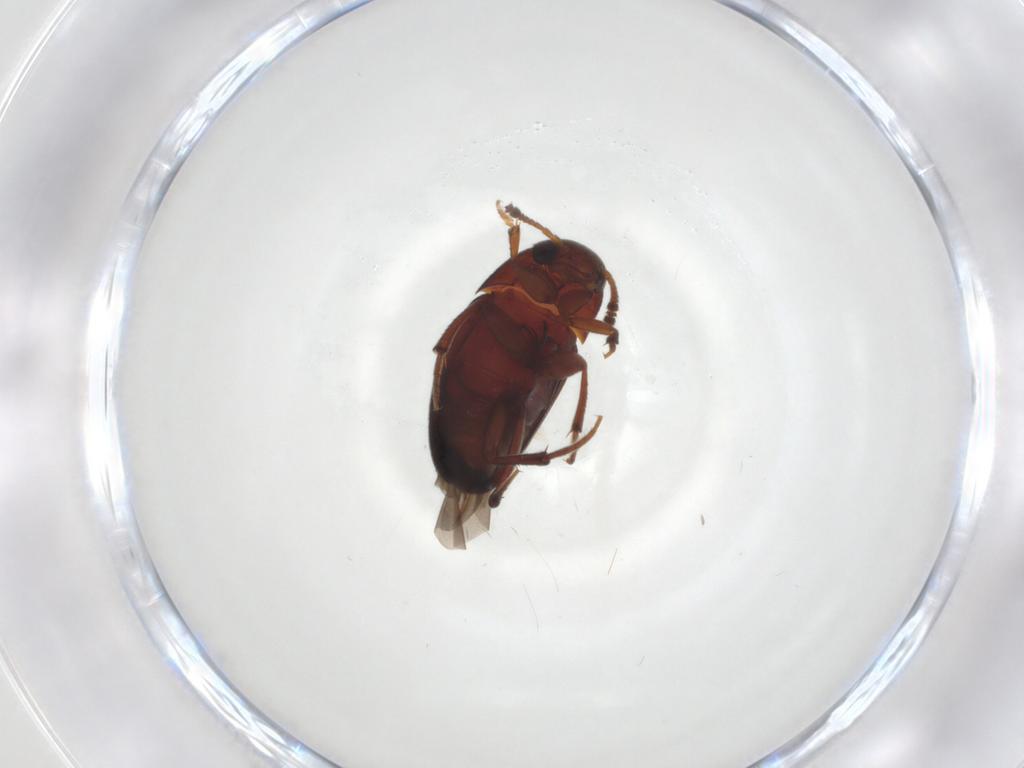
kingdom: Animalia
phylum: Arthropoda
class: Insecta
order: Coleoptera
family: Leiodidae
